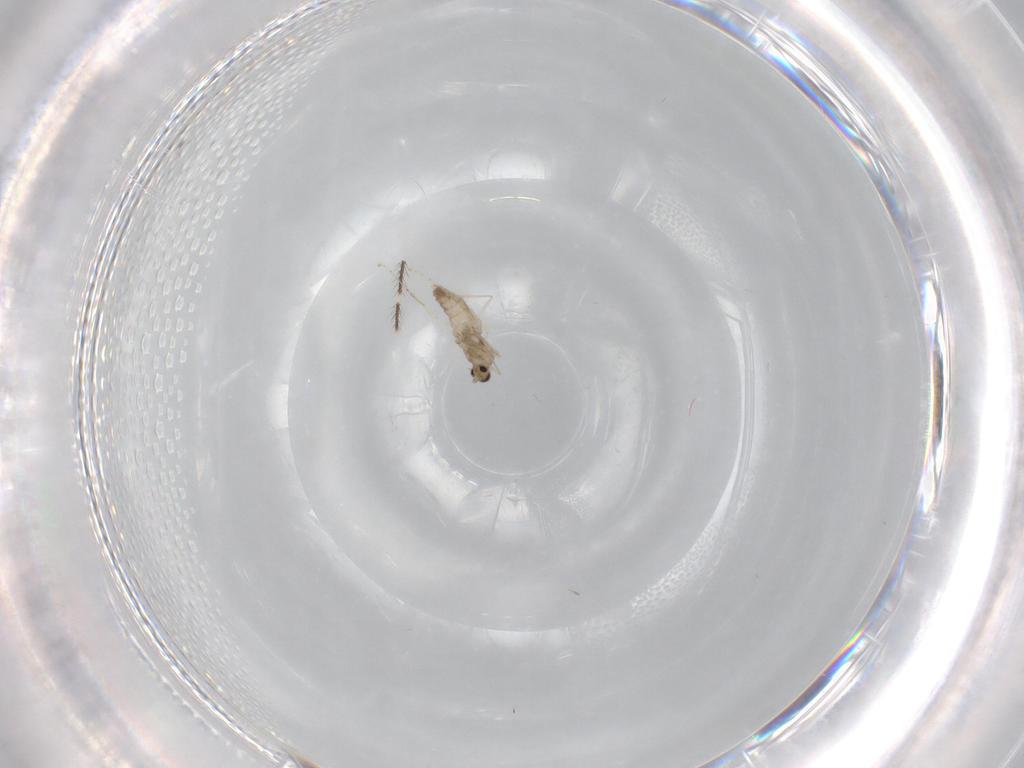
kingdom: Animalia
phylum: Arthropoda
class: Insecta
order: Diptera
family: Cecidomyiidae
